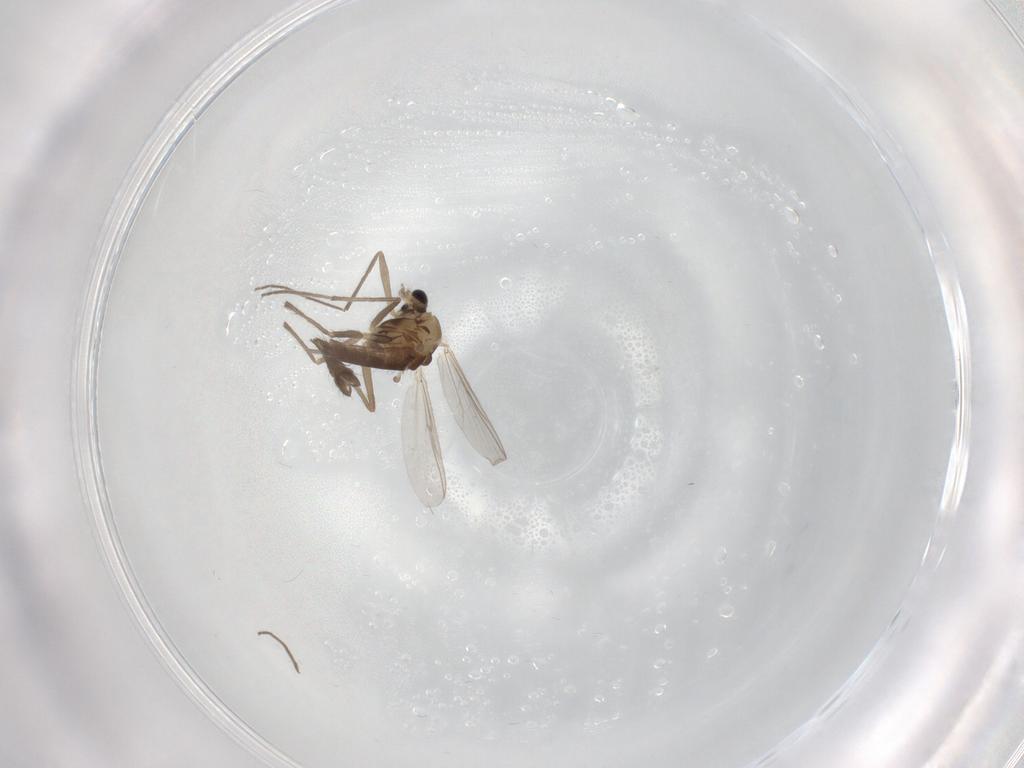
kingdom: Animalia
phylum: Arthropoda
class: Insecta
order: Diptera
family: Chironomidae
